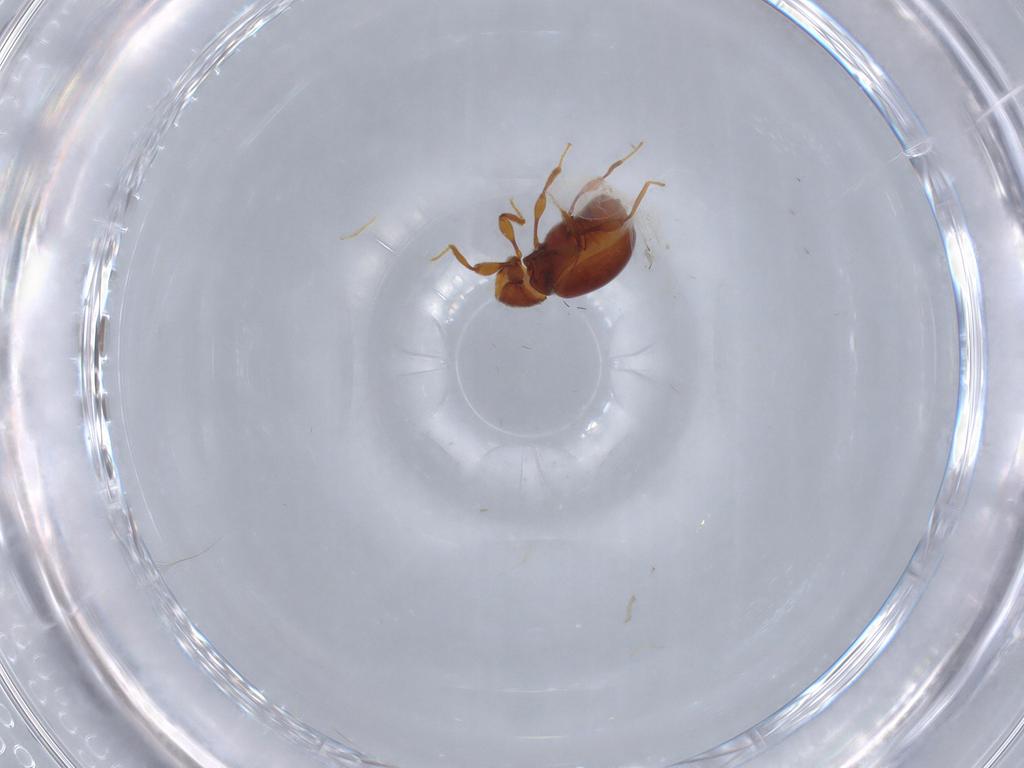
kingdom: Animalia
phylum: Arthropoda
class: Insecta
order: Coleoptera
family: Staphylinidae
